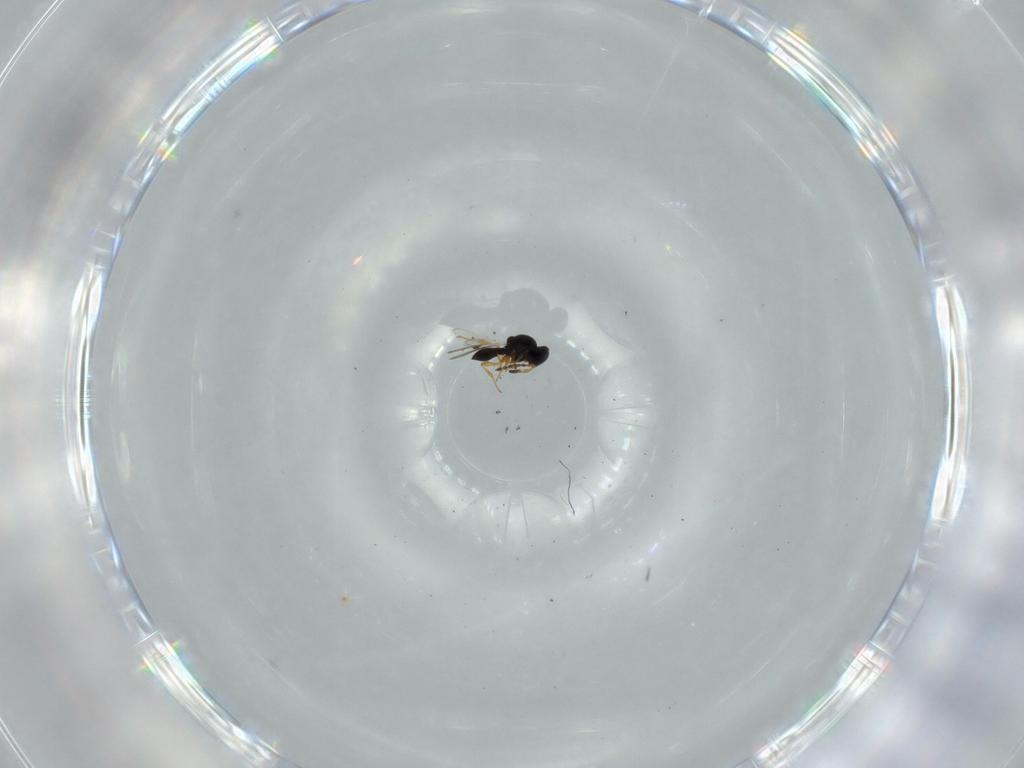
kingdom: Animalia
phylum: Arthropoda
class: Insecta
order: Hymenoptera
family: Platygastridae
